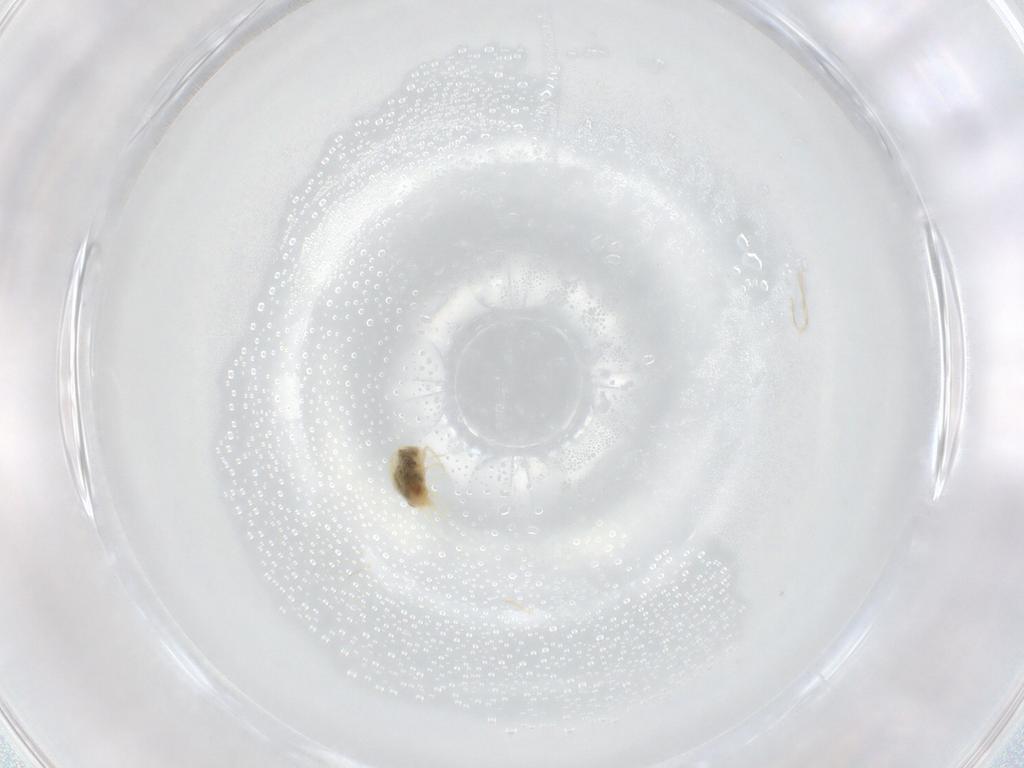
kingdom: Animalia
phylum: Arthropoda
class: Arachnida
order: Trombidiformes
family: Tetranychidae
